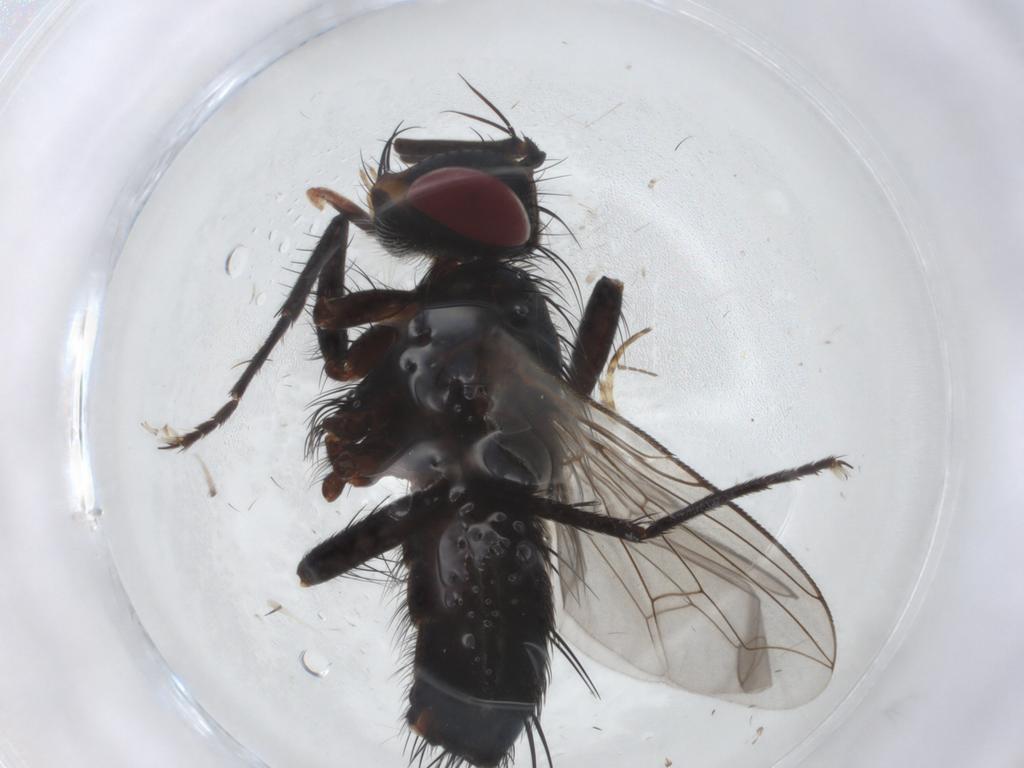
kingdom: Animalia
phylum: Arthropoda
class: Insecta
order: Diptera
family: Tachinidae
